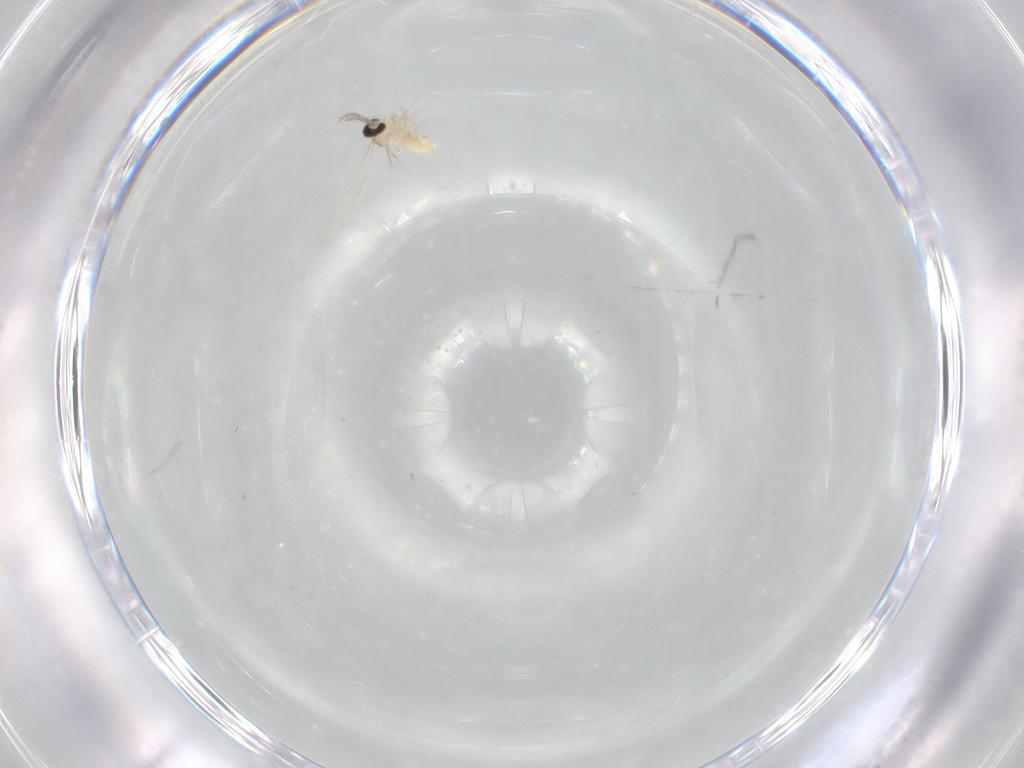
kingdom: Animalia
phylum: Arthropoda
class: Insecta
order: Diptera
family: Cecidomyiidae
